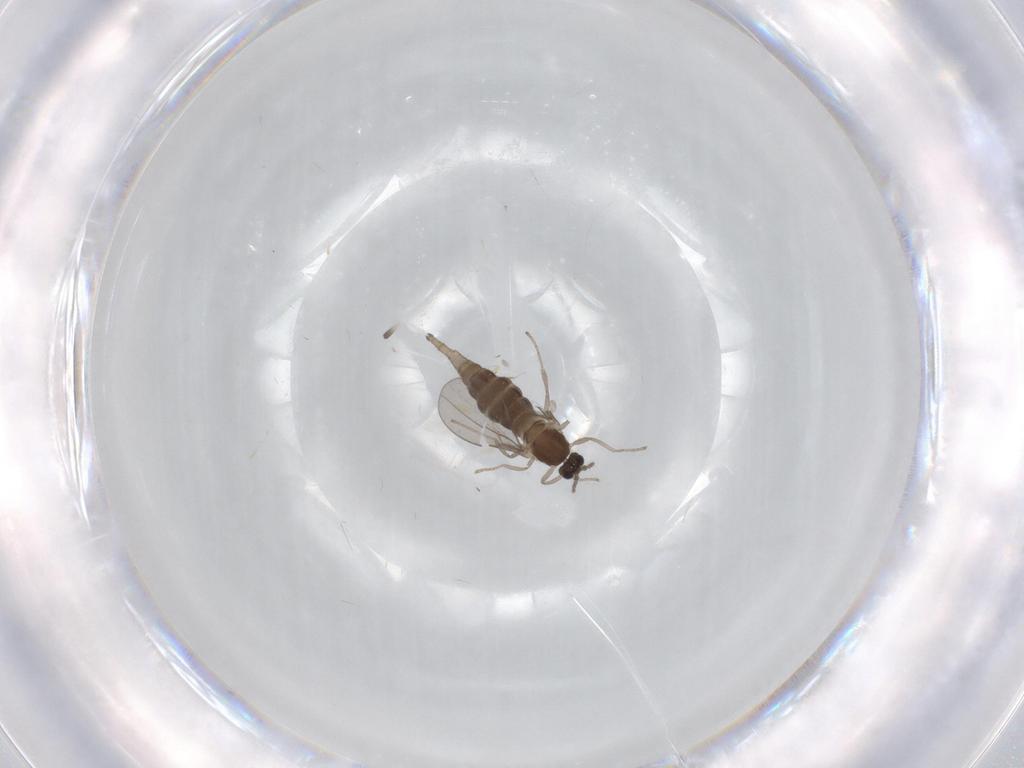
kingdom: Animalia
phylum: Arthropoda
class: Insecta
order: Diptera
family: Cecidomyiidae
